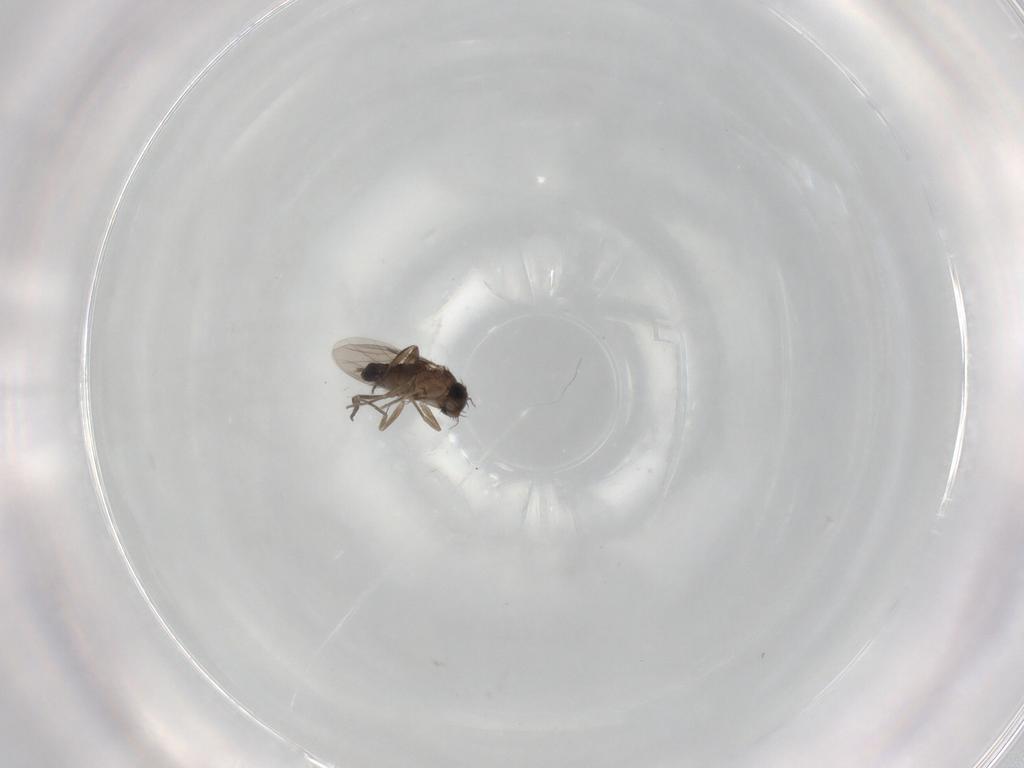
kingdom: Animalia
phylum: Arthropoda
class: Insecta
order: Diptera
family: Phoridae
